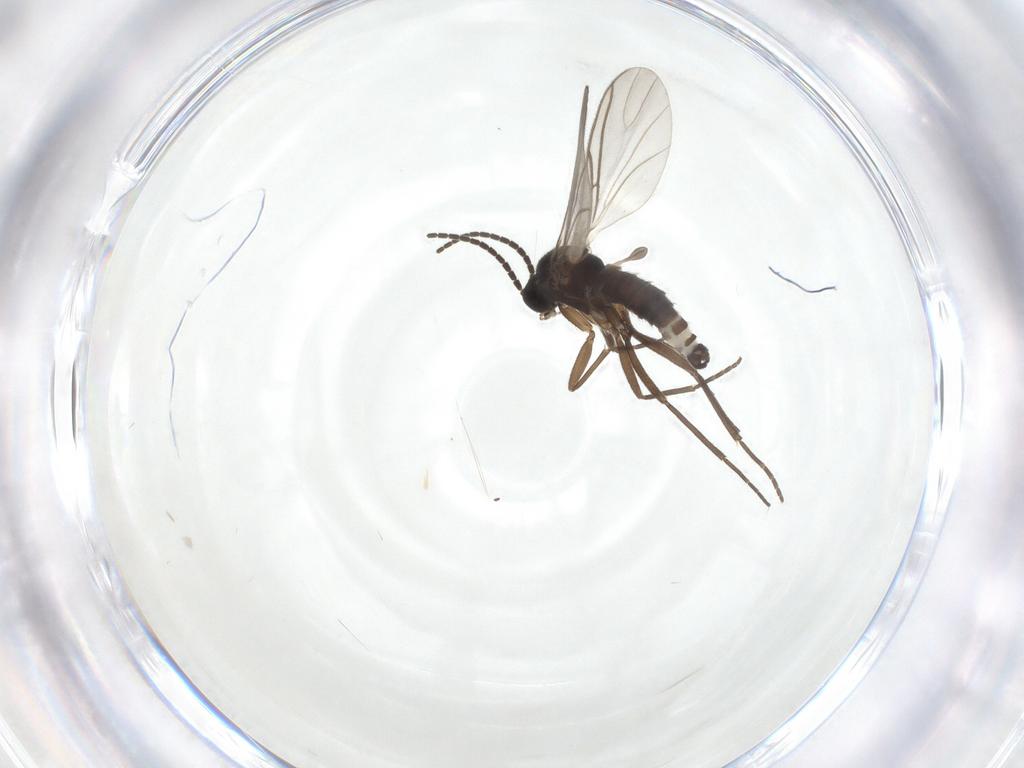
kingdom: Animalia
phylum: Arthropoda
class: Insecta
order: Diptera
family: Sciaridae
